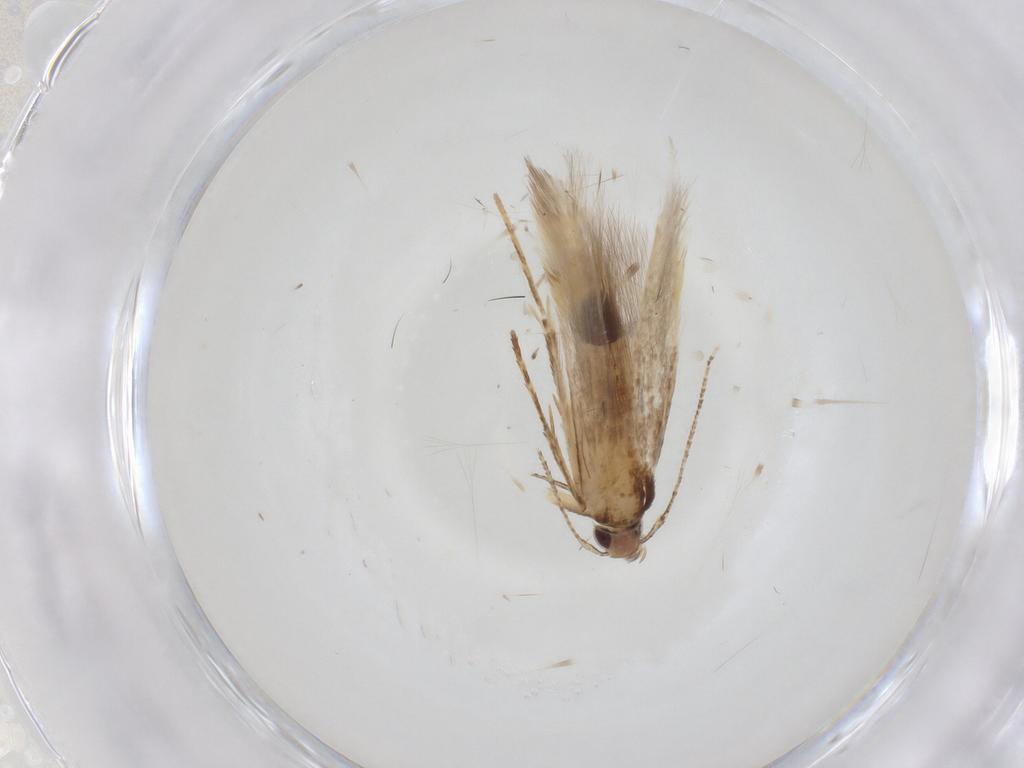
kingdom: Animalia
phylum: Arthropoda
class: Insecta
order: Lepidoptera
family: Cosmopterigidae
